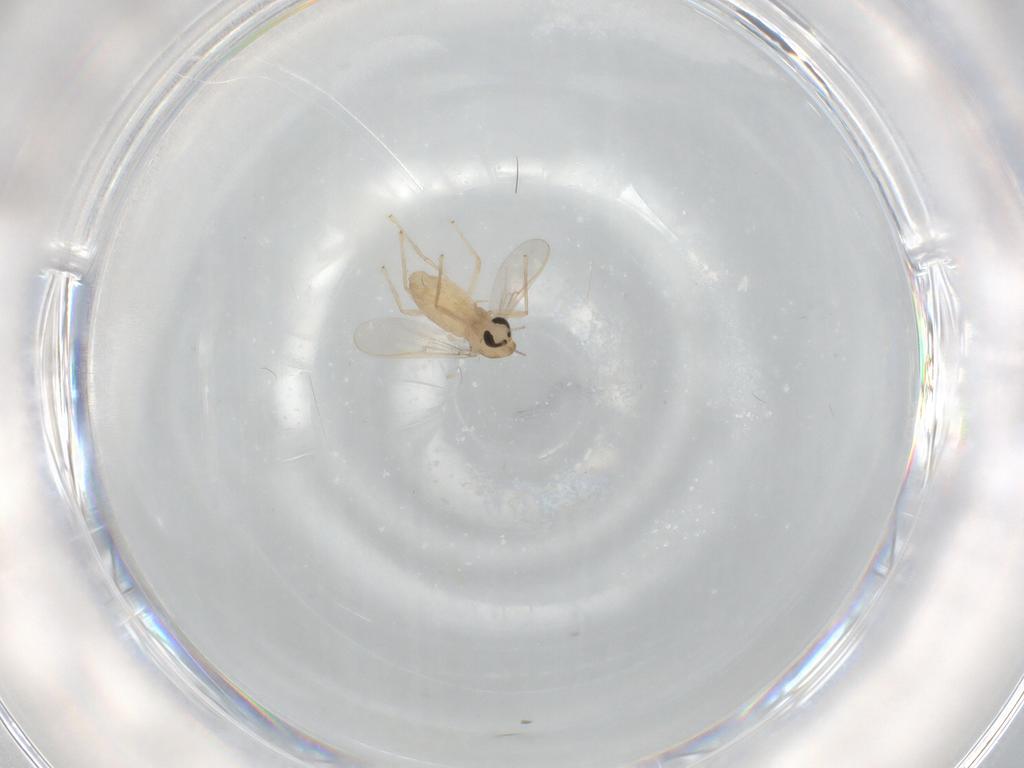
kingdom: Animalia
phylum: Arthropoda
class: Insecta
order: Diptera
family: Chironomidae
